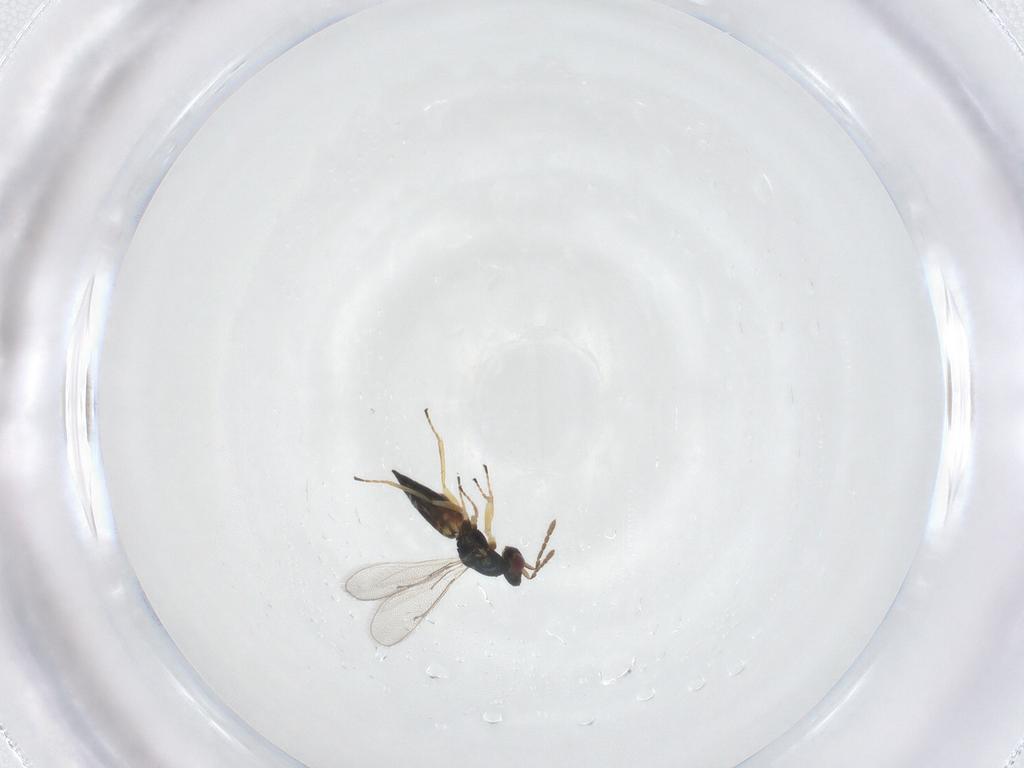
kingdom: Animalia
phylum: Arthropoda
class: Insecta
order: Hymenoptera
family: Eulophidae
